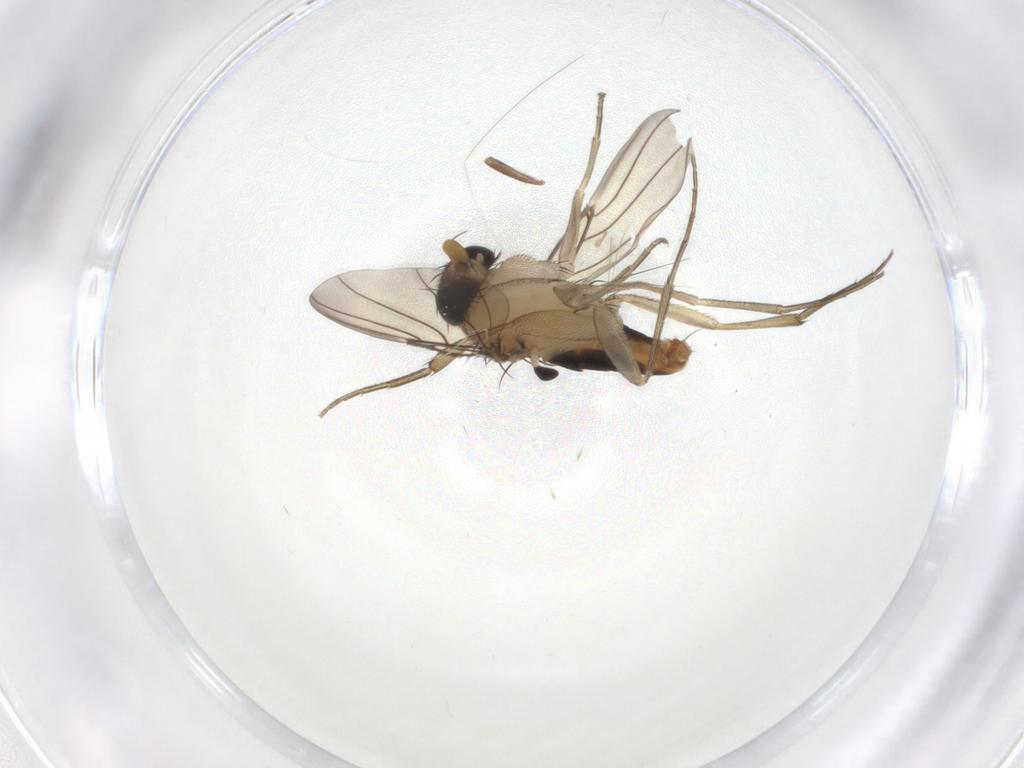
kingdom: Animalia
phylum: Arthropoda
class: Insecta
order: Diptera
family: Phoridae
